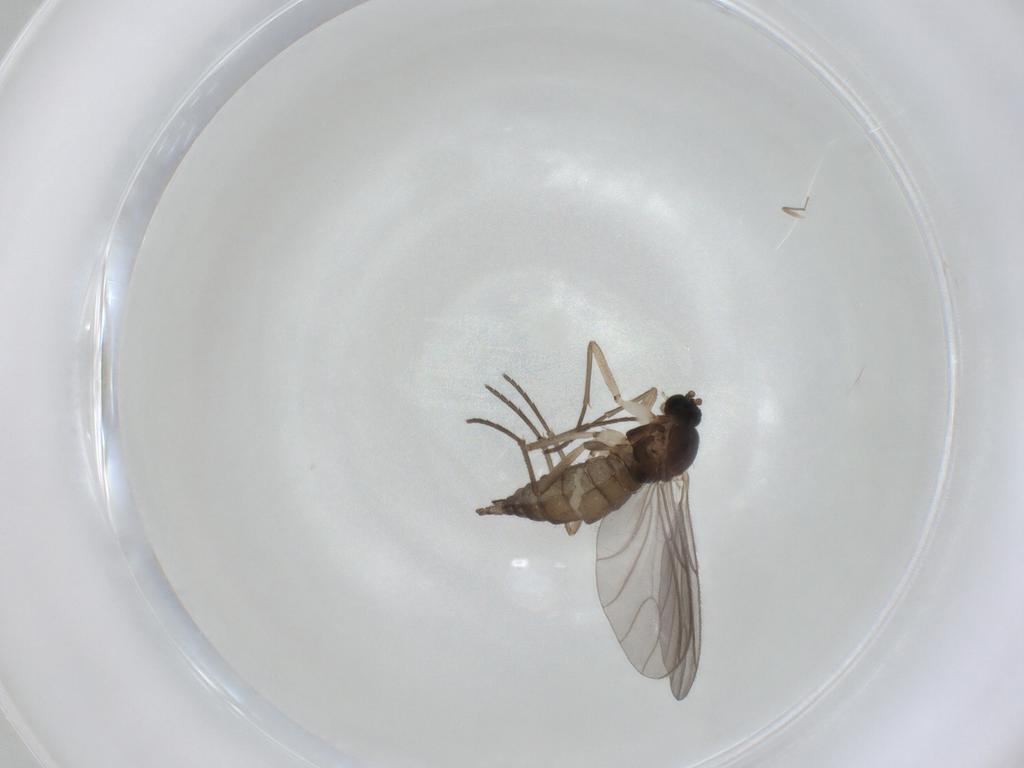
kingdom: Animalia
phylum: Arthropoda
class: Insecta
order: Diptera
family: Sciaridae
